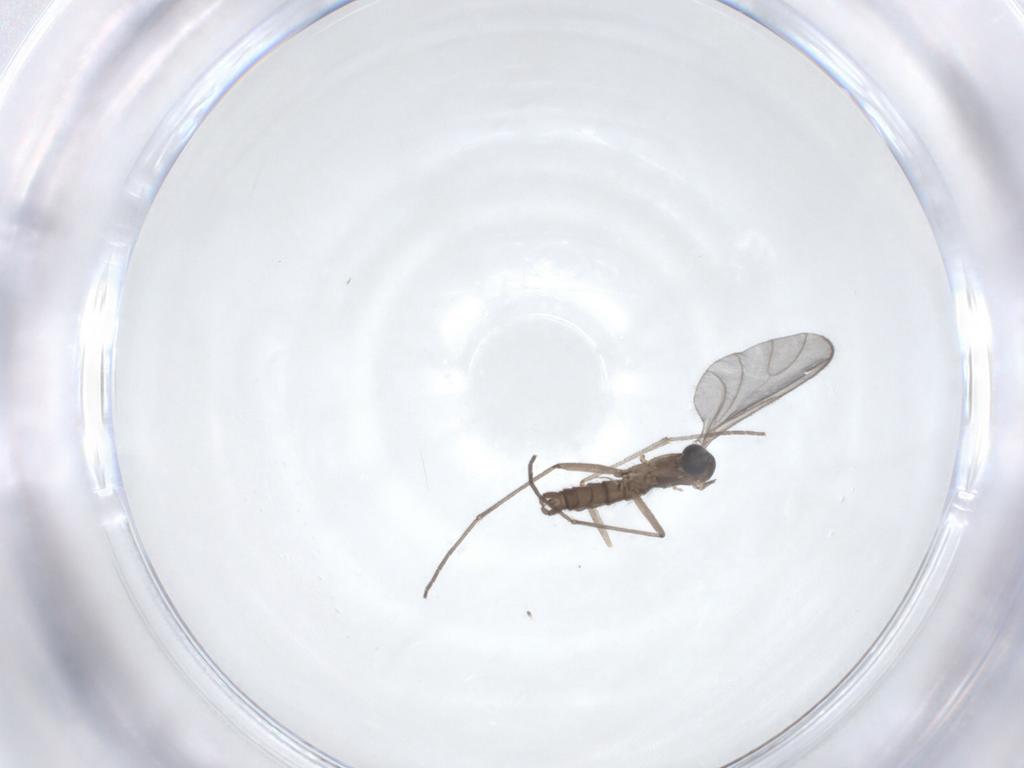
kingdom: Animalia
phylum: Arthropoda
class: Insecta
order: Diptera
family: Sciaridae
